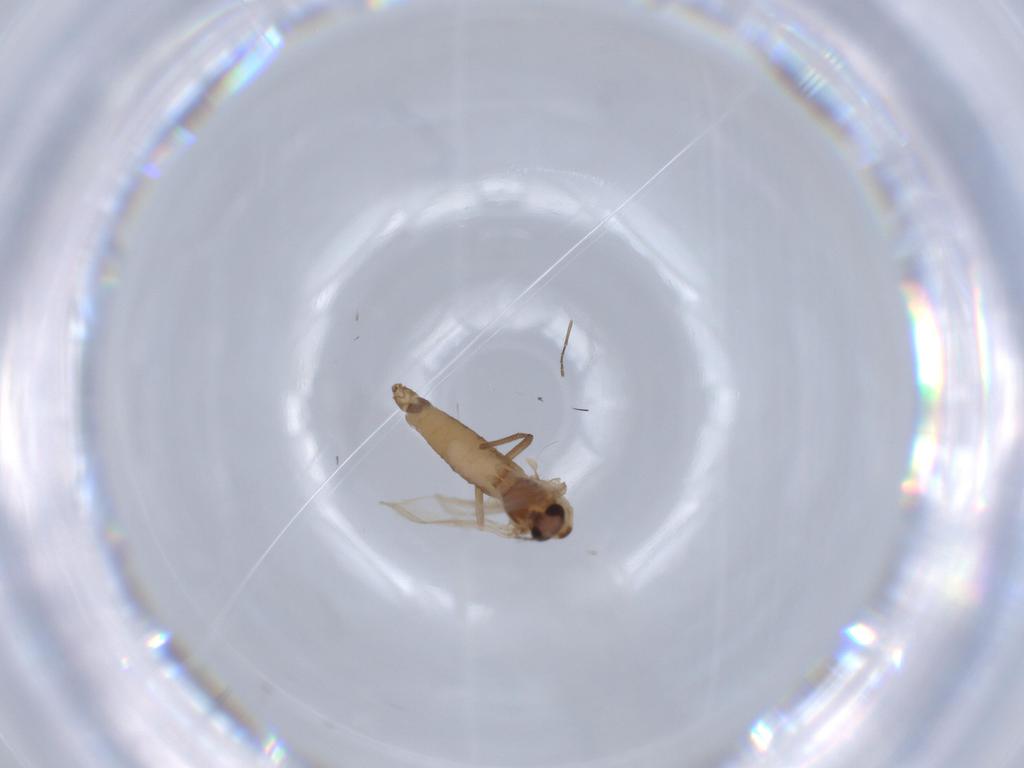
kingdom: Animalia
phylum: Arthropoda
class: Insecta
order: Diptera
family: Chironomidae
